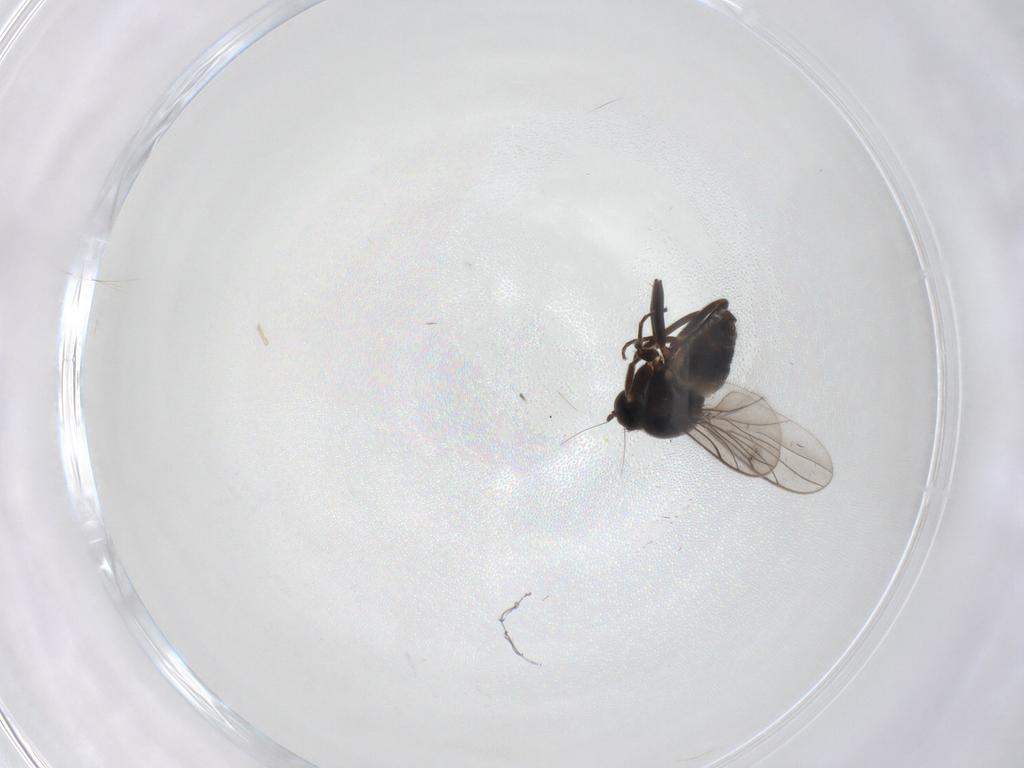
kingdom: Animalia
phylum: Arthropoda
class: Insecta
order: Diptera
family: Hybotidae
